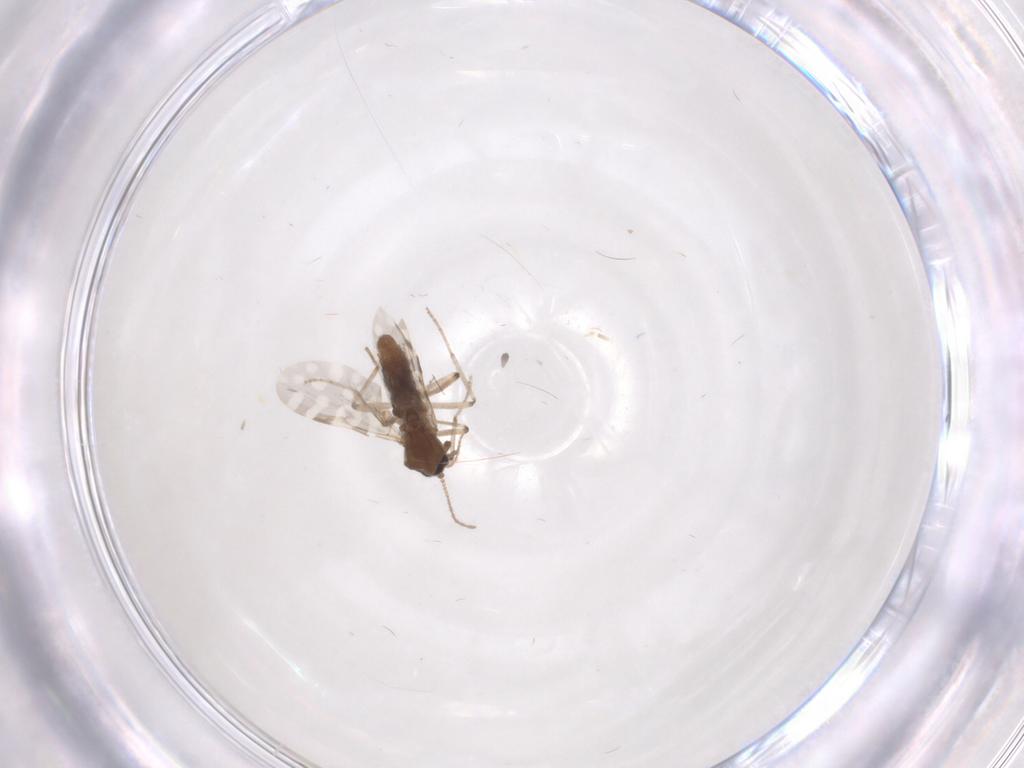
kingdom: Animalia
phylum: Arthropoda
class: Insecta
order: Diptera
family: Chironomidae
